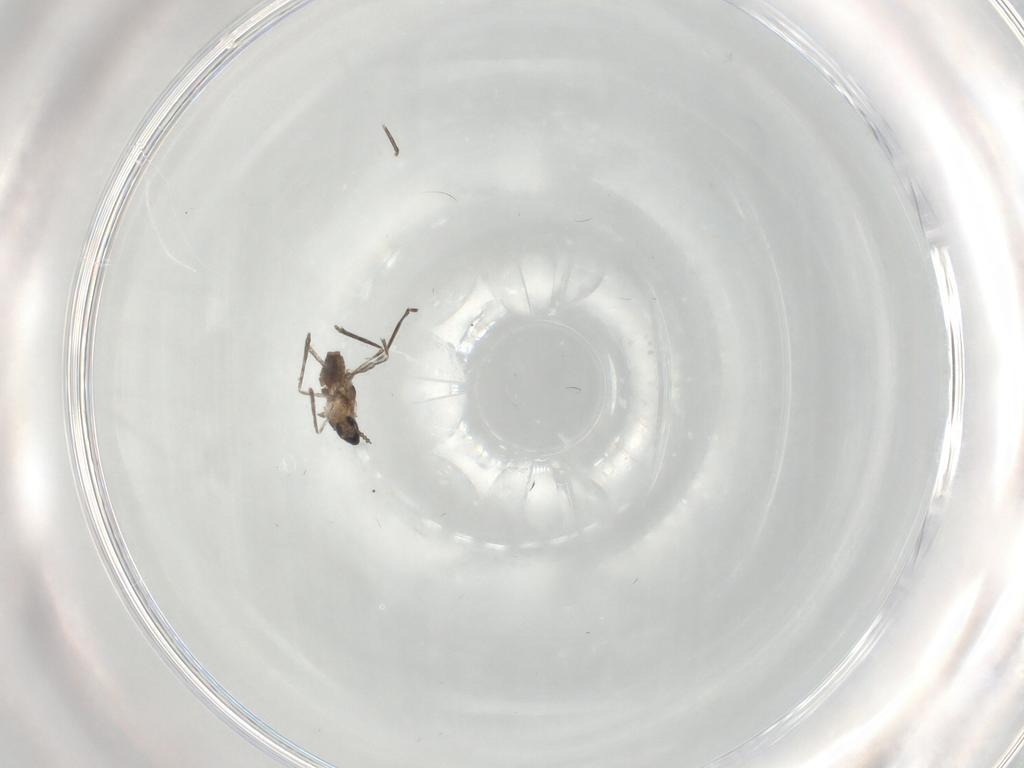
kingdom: Animalia
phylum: Arthropoda
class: Insecta
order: Diptera
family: Cecidomyiidae
